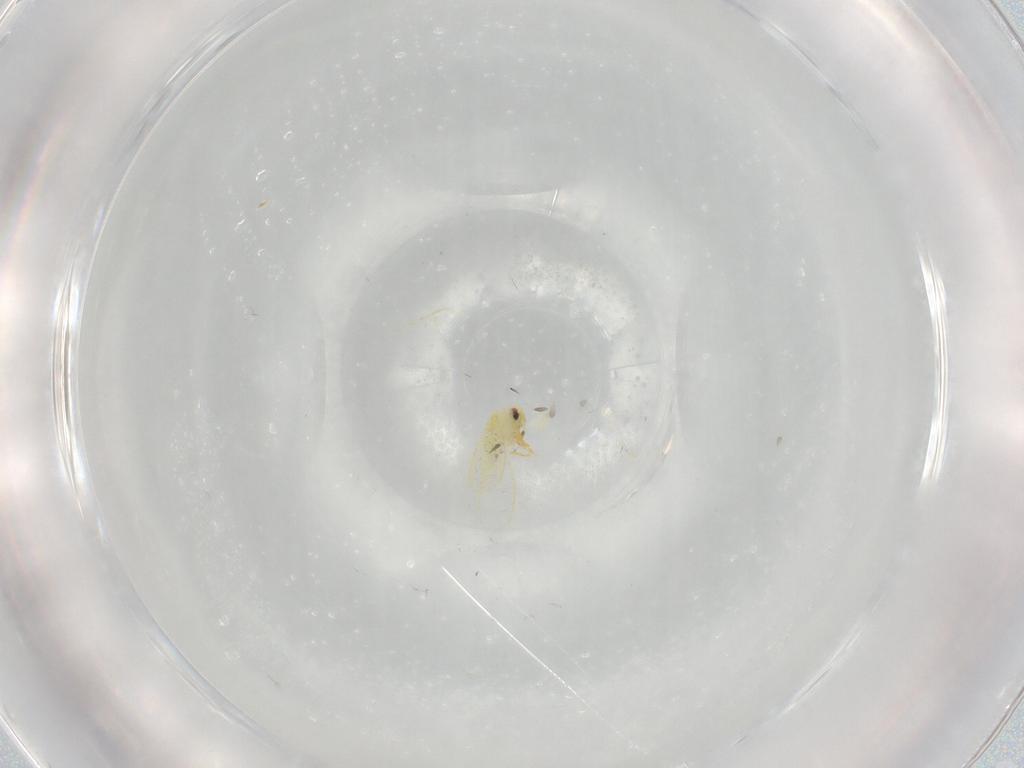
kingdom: Animalia
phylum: Arthropoda
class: Insecta
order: Hemiptera
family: Aleyrodidae
